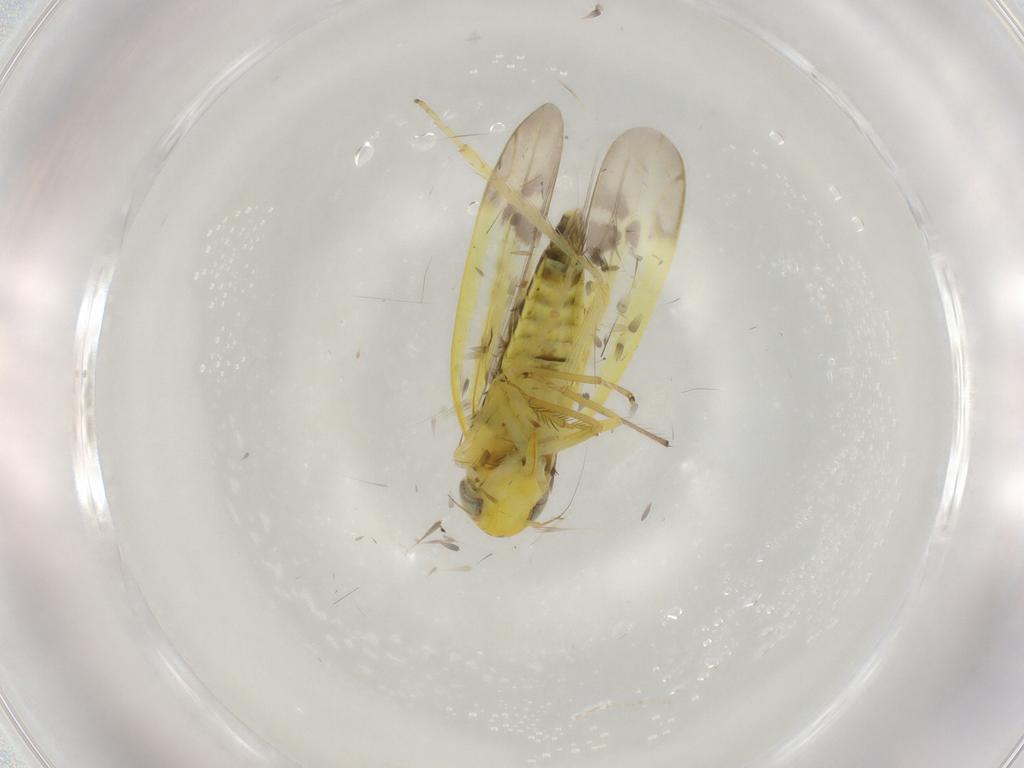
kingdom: Animalia
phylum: Arthropoda
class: Insecta
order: Hemiptera
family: Cicadellidae
